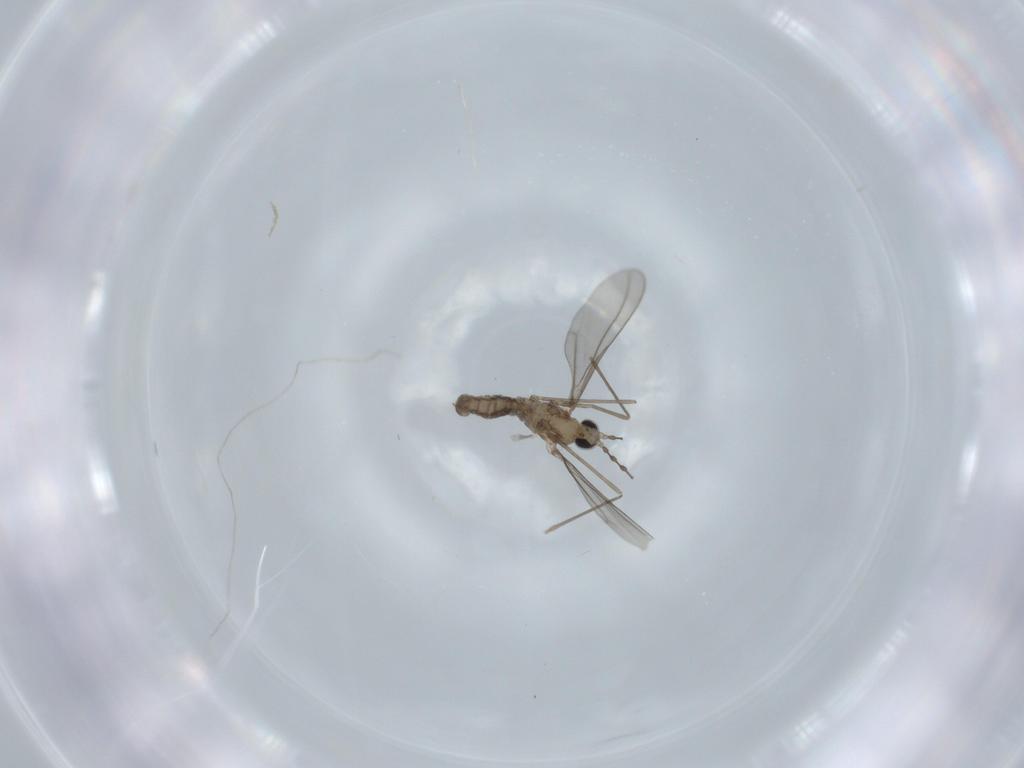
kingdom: Animalia
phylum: Arthropoda
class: Insecta
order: Diptera
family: Cecidomyiidae
